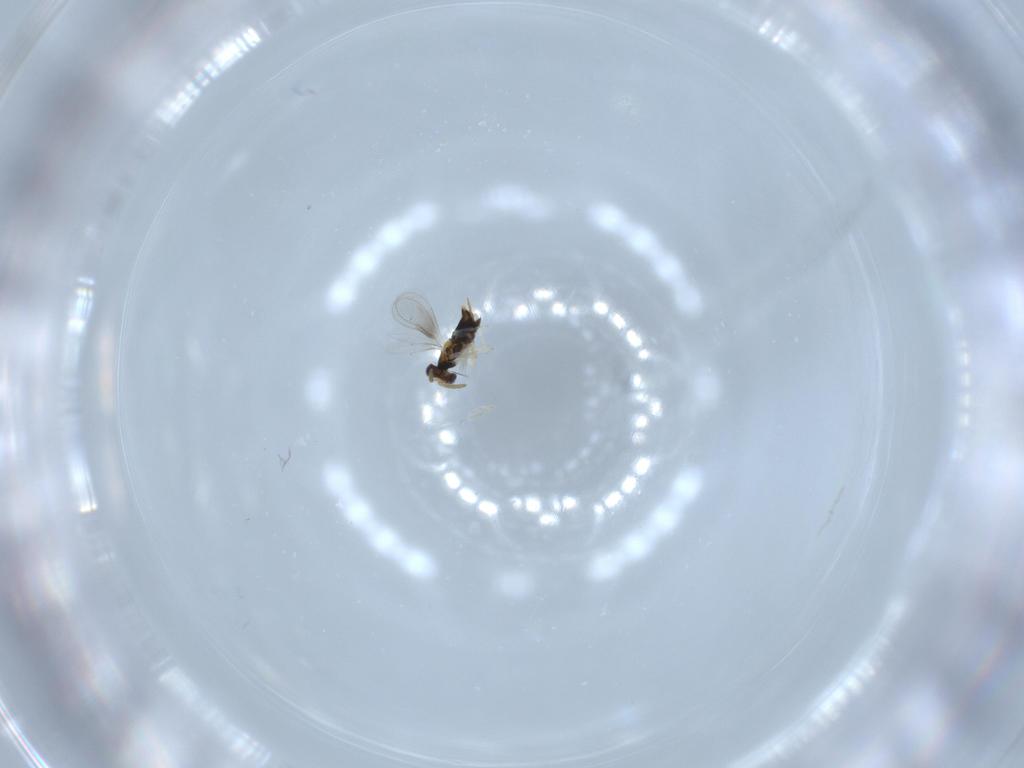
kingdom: Animalia
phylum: Arthropoda
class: Insecta
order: Hymenoptera
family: Aphelinidae
